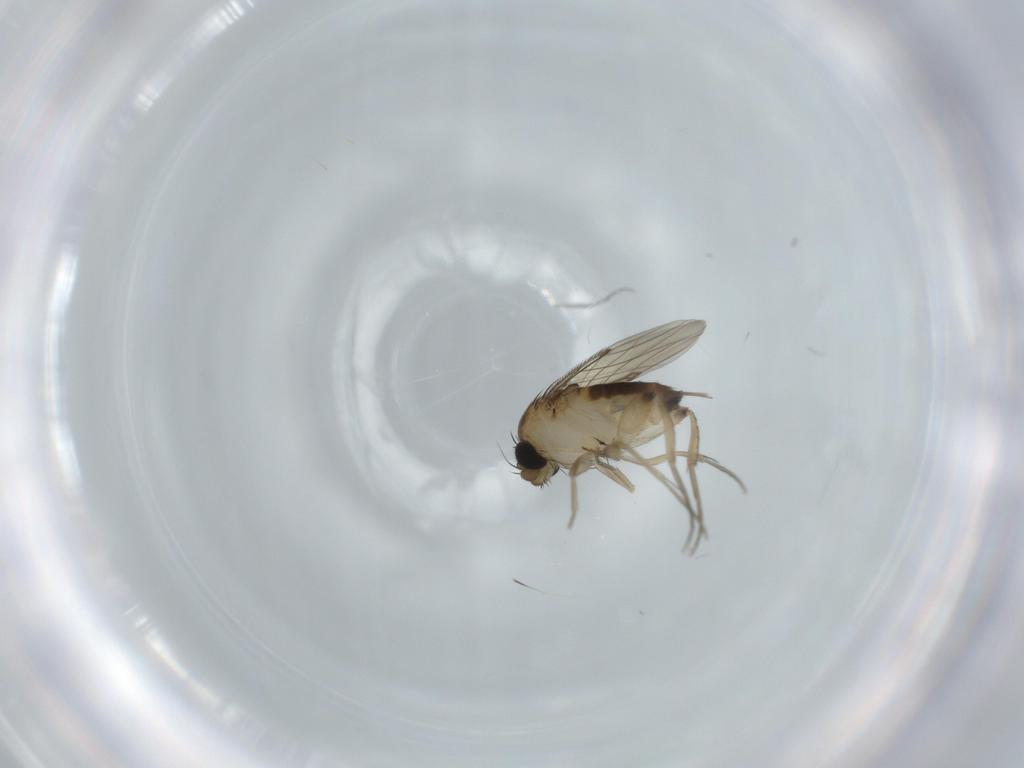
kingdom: Animalia
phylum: Arthropoda
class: Insecta
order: Diptera
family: Phoridae
